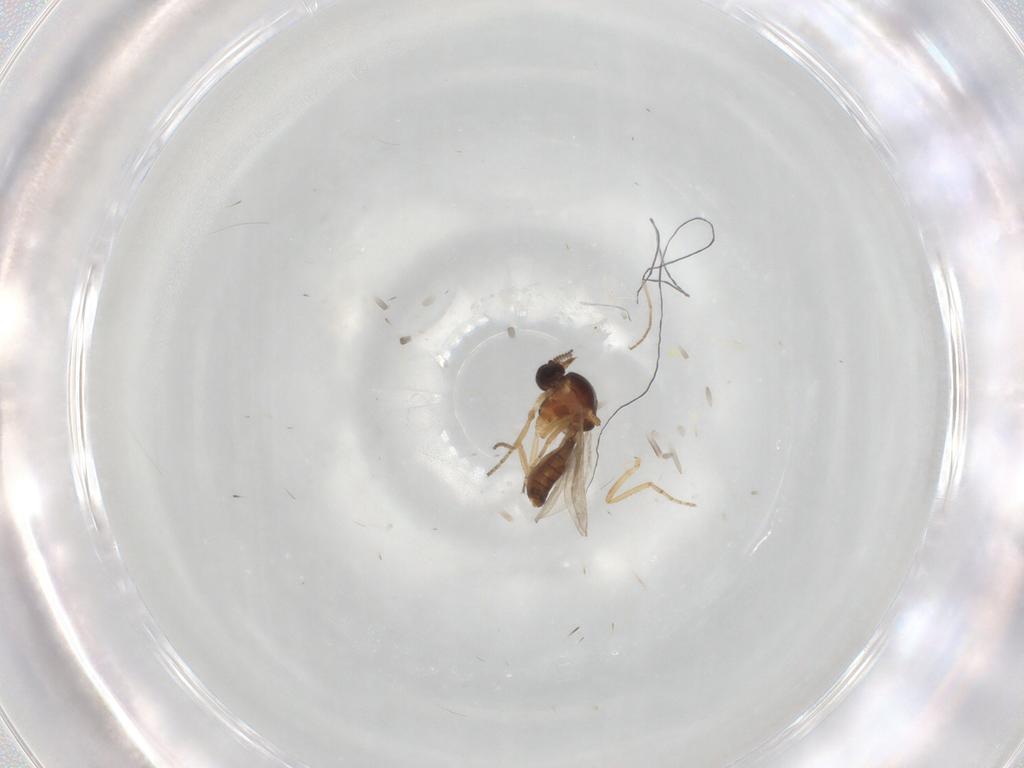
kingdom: Animalia
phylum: Arthropoda
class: Insecta
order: Diptera
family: Ceratopogonidae
